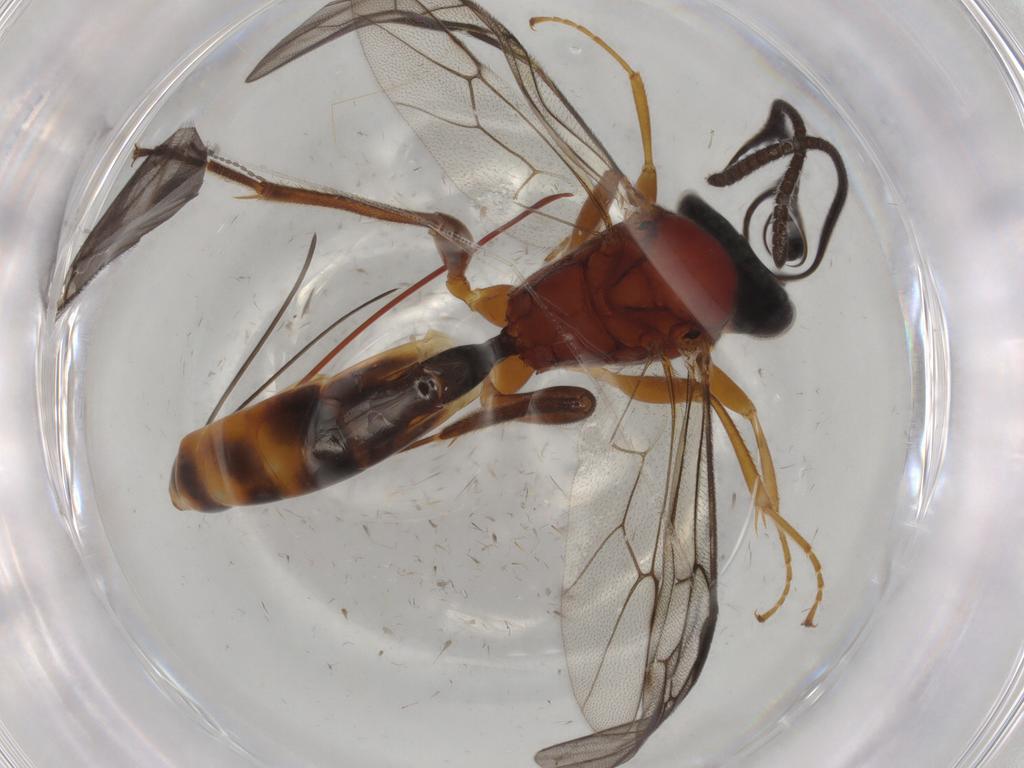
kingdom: Animalia
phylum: Arthropoda
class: Insecta
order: Hymenoptera
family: Platygastridae
